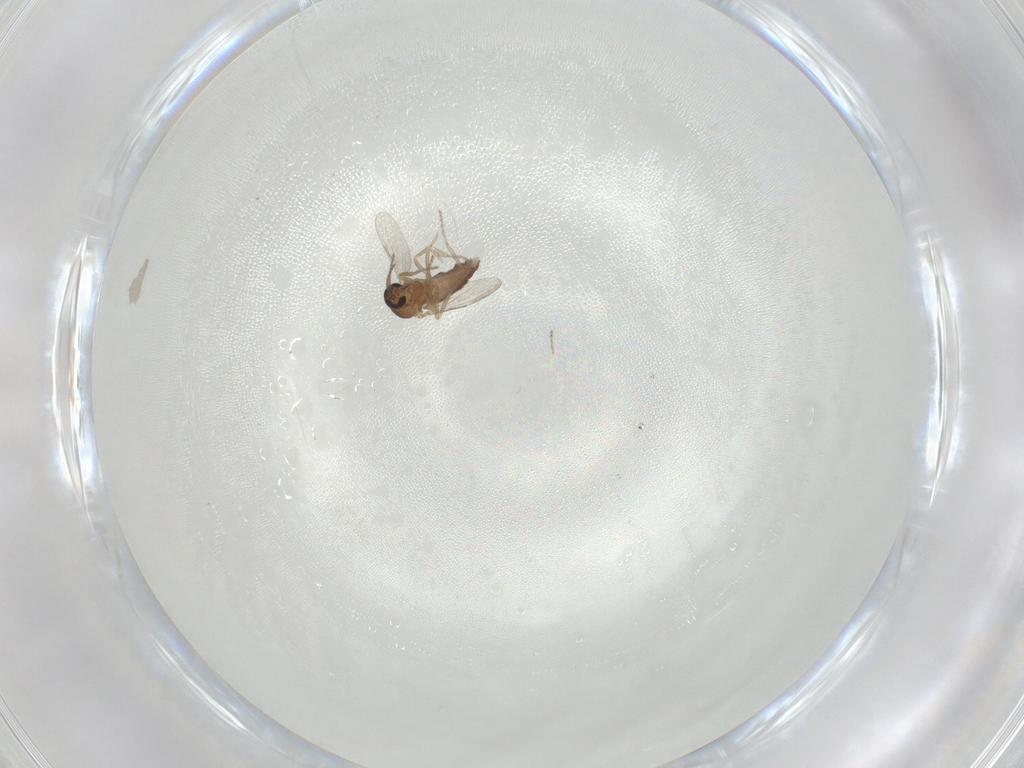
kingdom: Animalia
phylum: Arthropoda
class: Insecta
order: Diptera
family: Ceratopogonidae
